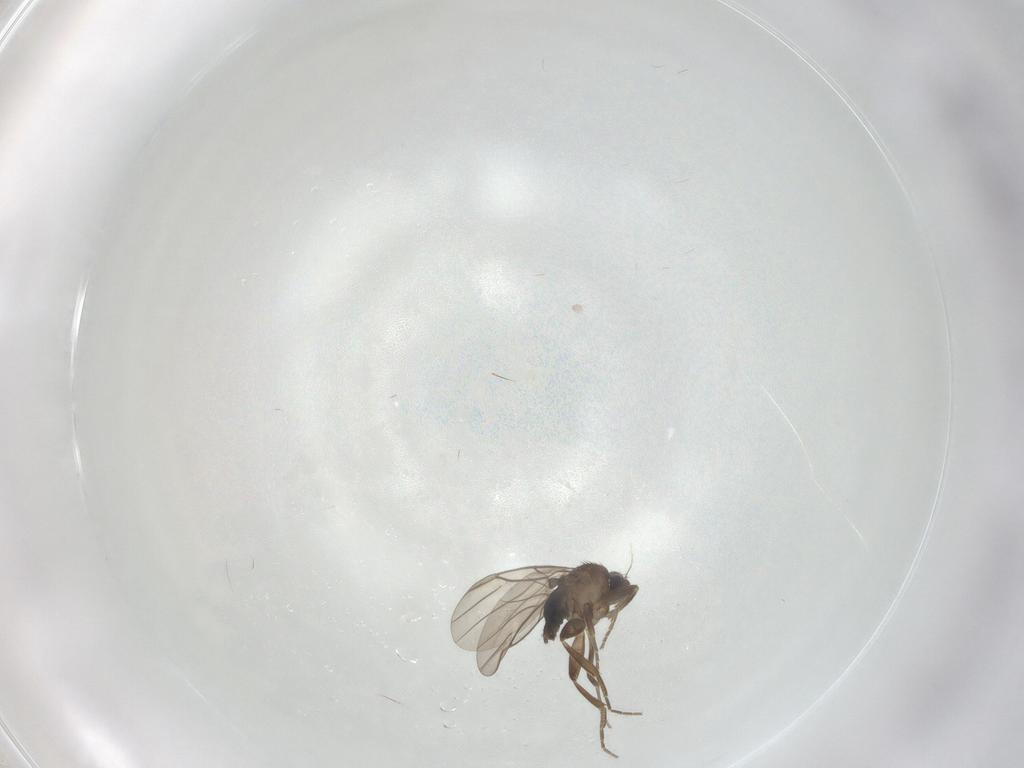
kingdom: Animalia
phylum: Arthropoda
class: Insecta
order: Diptera
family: Phoridae
